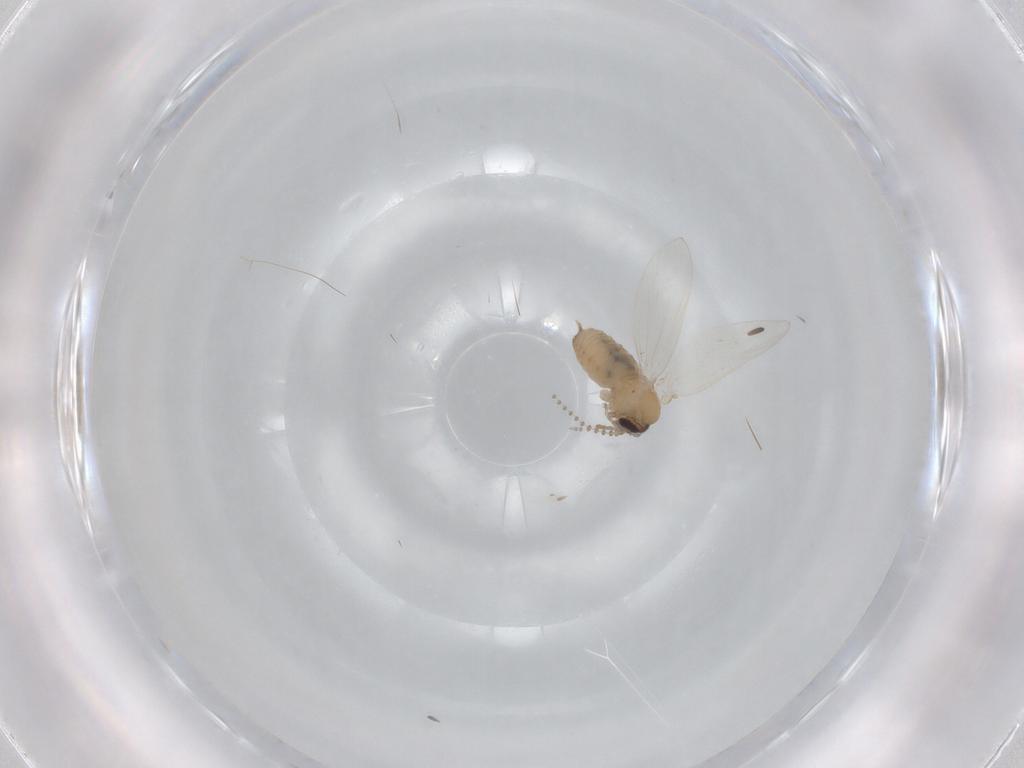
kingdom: Animalia
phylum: Arthropoda
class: Insecta
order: Diptera
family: Psychodidae
